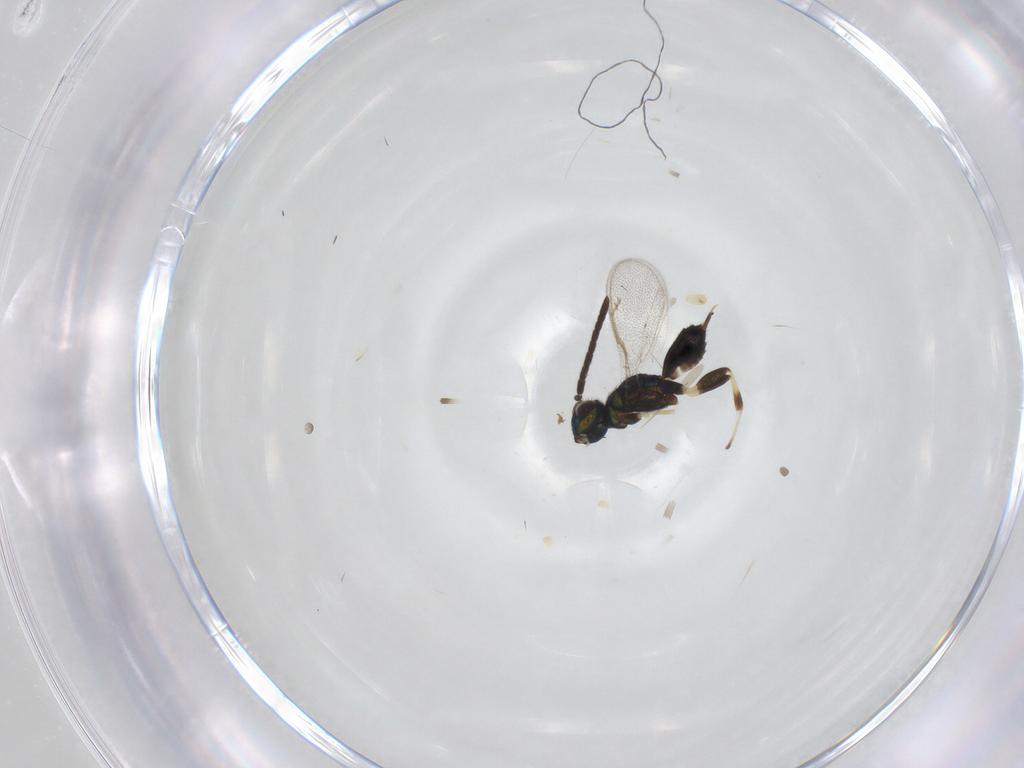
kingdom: Animalia
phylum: Arthropoda
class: Insecta
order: Hymenoptera
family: Eupelmidae
